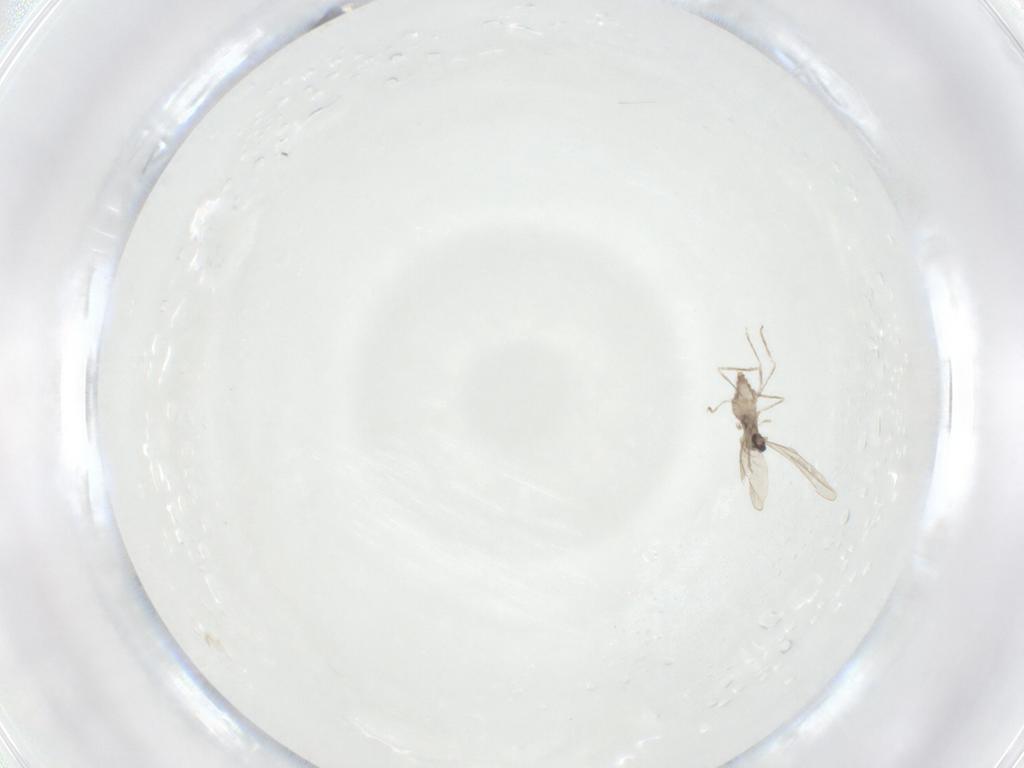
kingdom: Animalia
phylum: Arthropoda
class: Insecta
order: Diptera
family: Cecidomyiidae
